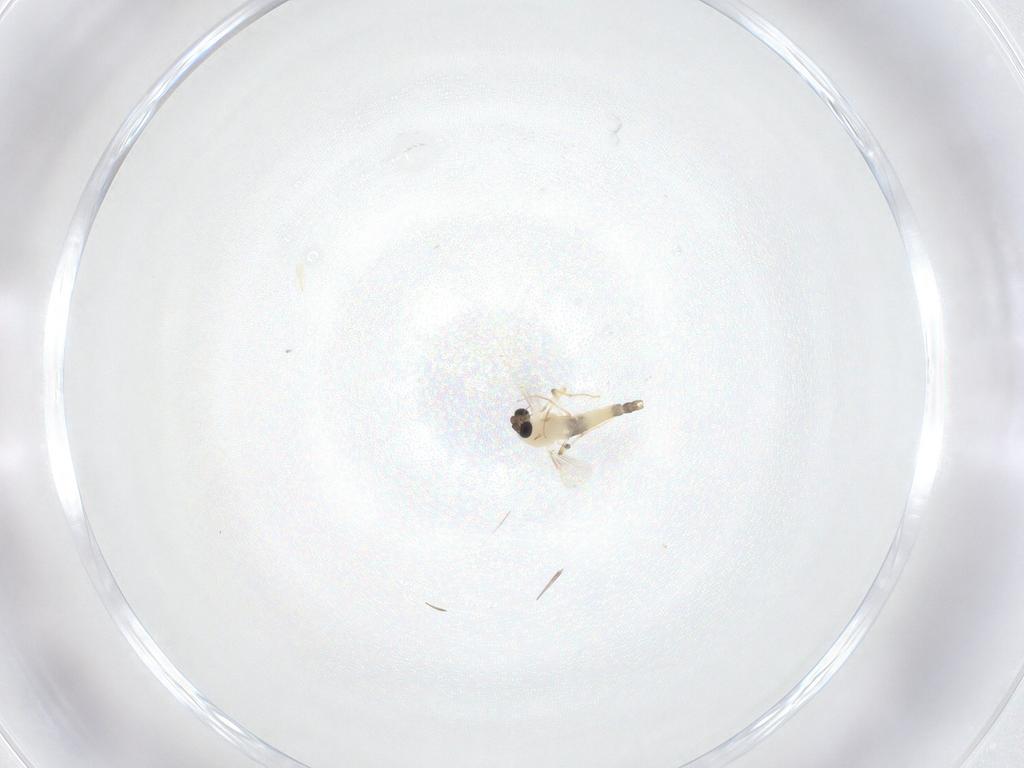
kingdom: Animalia
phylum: Arthropoda
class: Insecta
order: Diptera
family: Chironomidae
